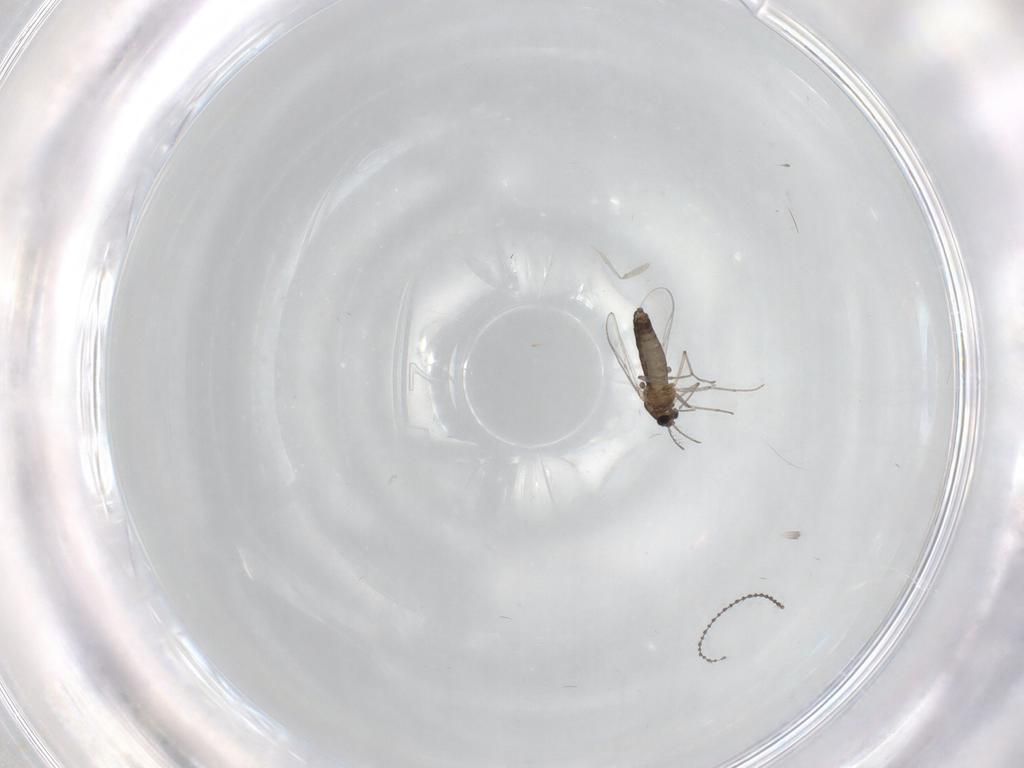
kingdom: Animalia
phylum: Arthropoda
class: Insecta
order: Diptera
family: Chironomidae
